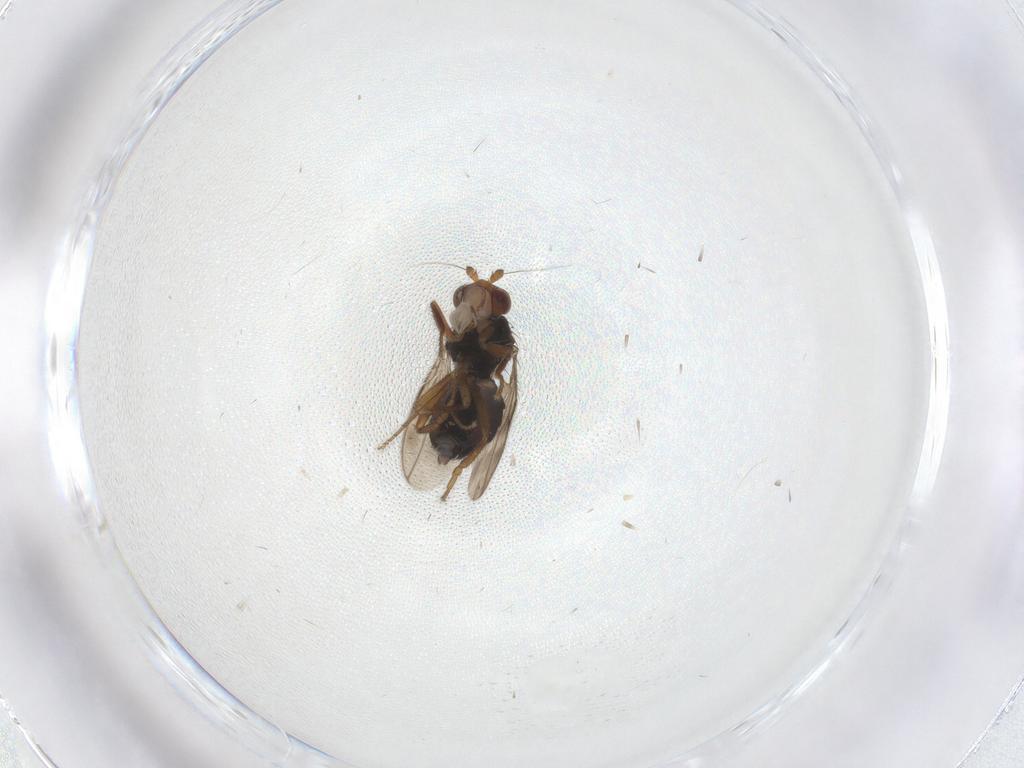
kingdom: Animalia
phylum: Arthropoda
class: Insecta
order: Diptera
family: Sphaeroceridae
